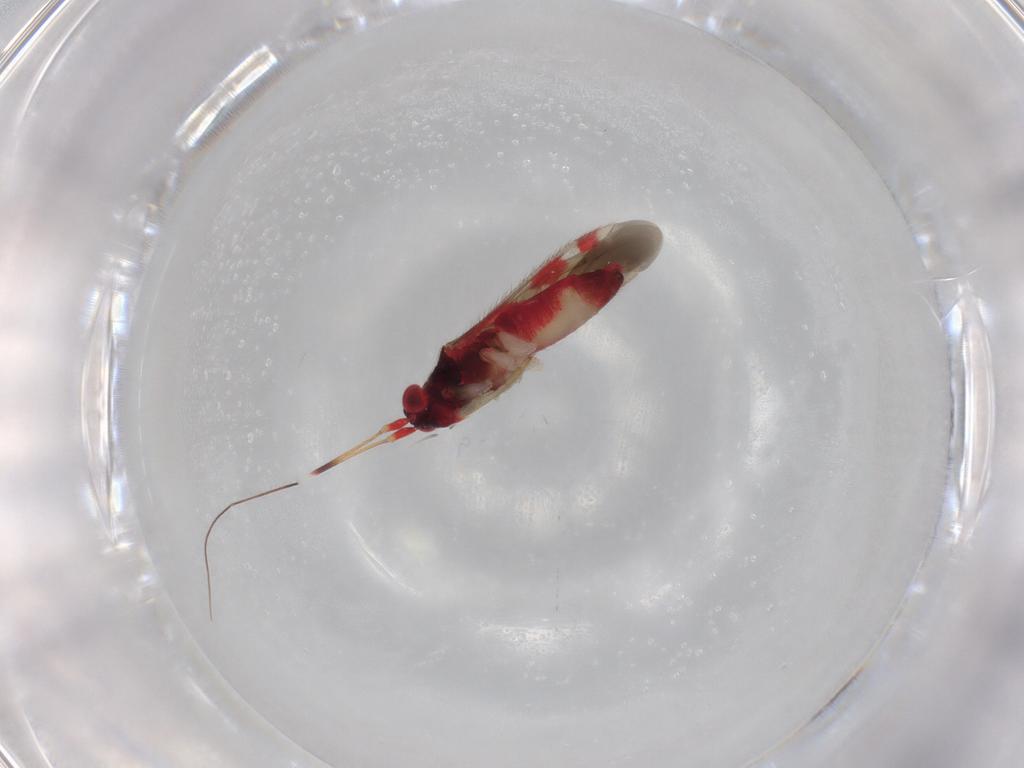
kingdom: Animalia
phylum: Arthropoda
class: Insecta
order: Hemiptera
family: Miridae
